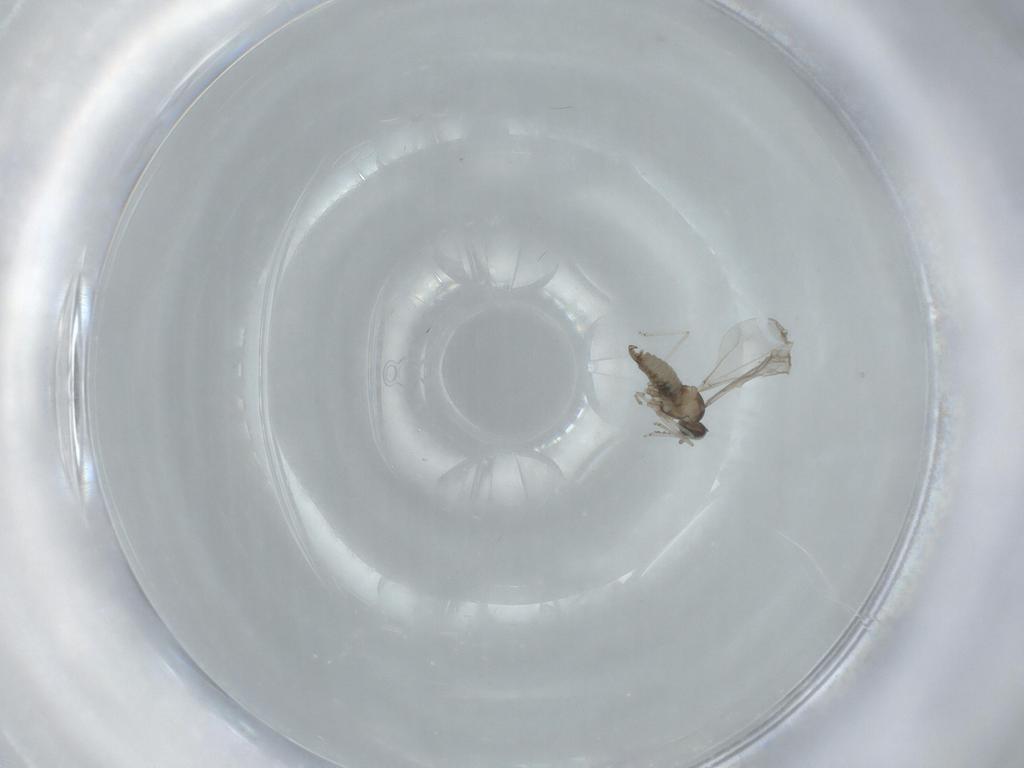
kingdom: Animalia
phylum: Arthropoda
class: Insecta
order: Diptera
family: Cecidomyiidae
